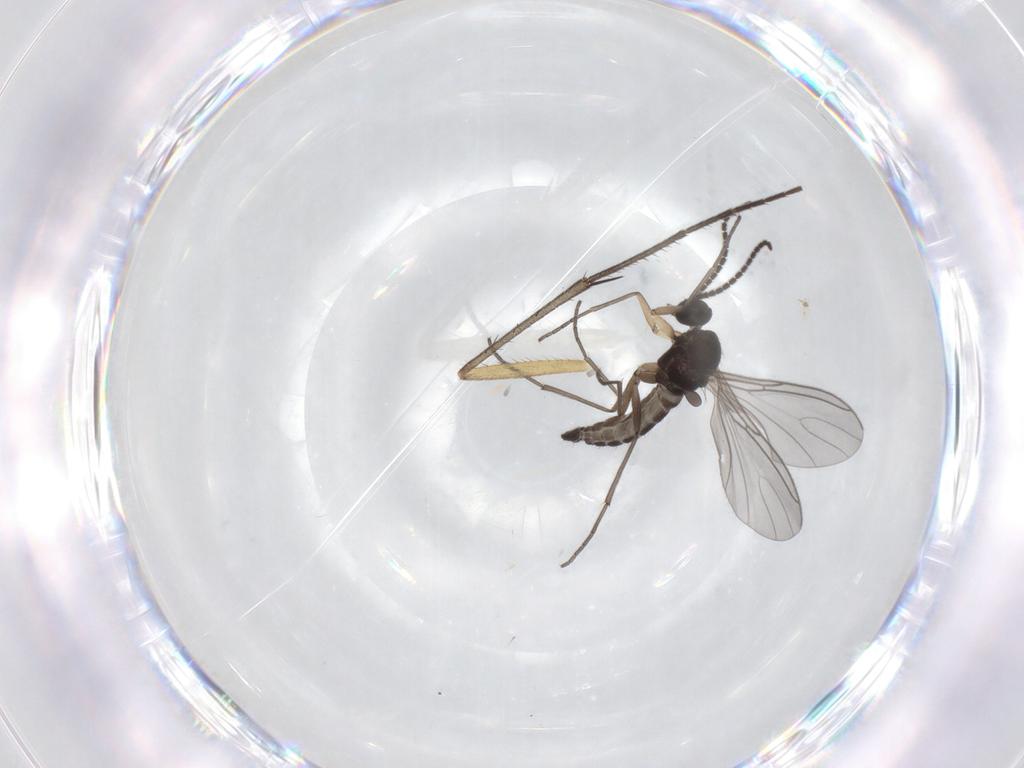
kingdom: Animalia
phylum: Arthropoda
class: Insecta
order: Diptera
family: Sciaridae
